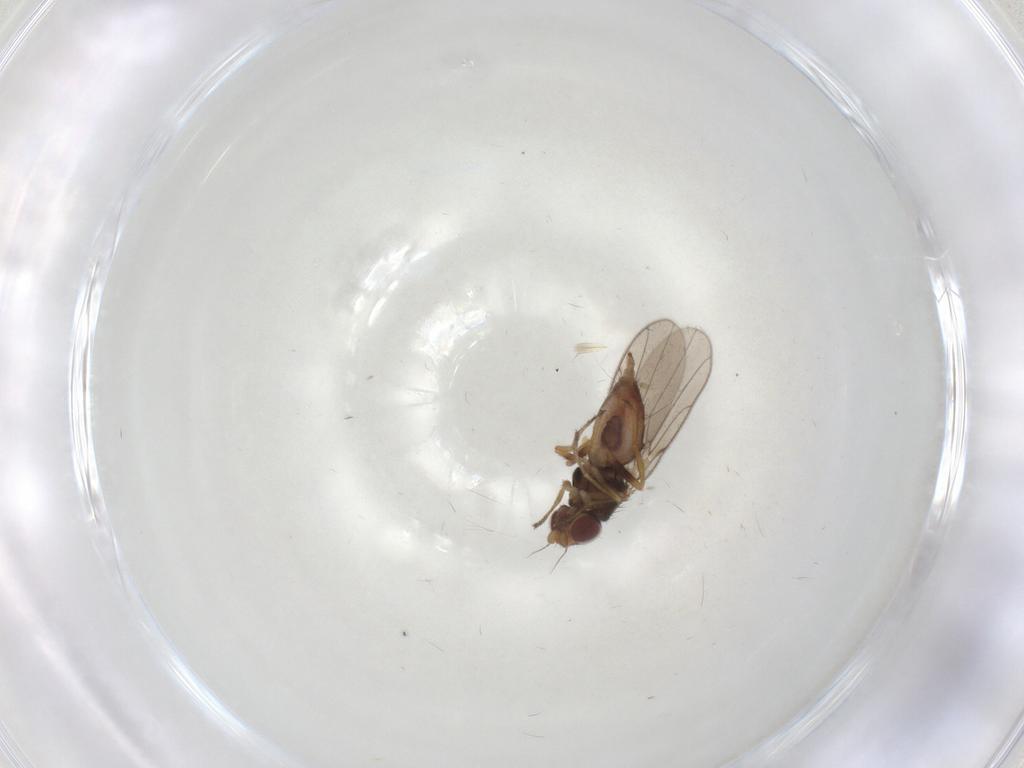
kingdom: Animalia
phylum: Arthropoda
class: Insecta
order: Diptera
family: Chloropidae
